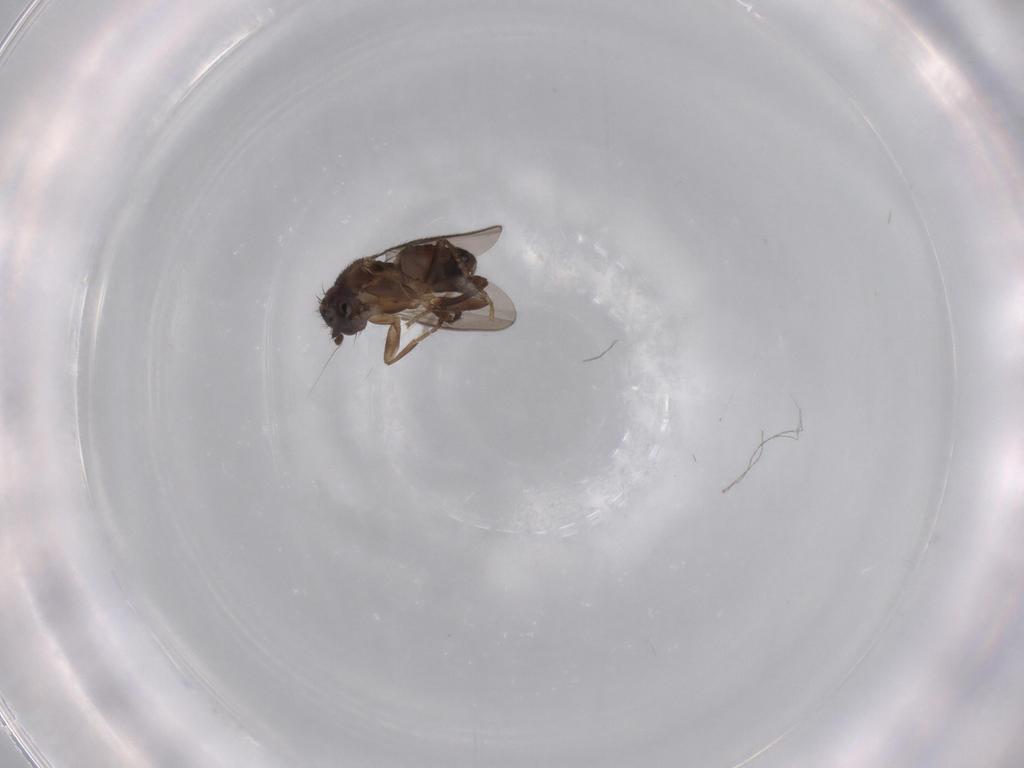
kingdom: Animalia
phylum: Arthropoda
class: Insecta
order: Diptera
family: Sphaeroceridae
